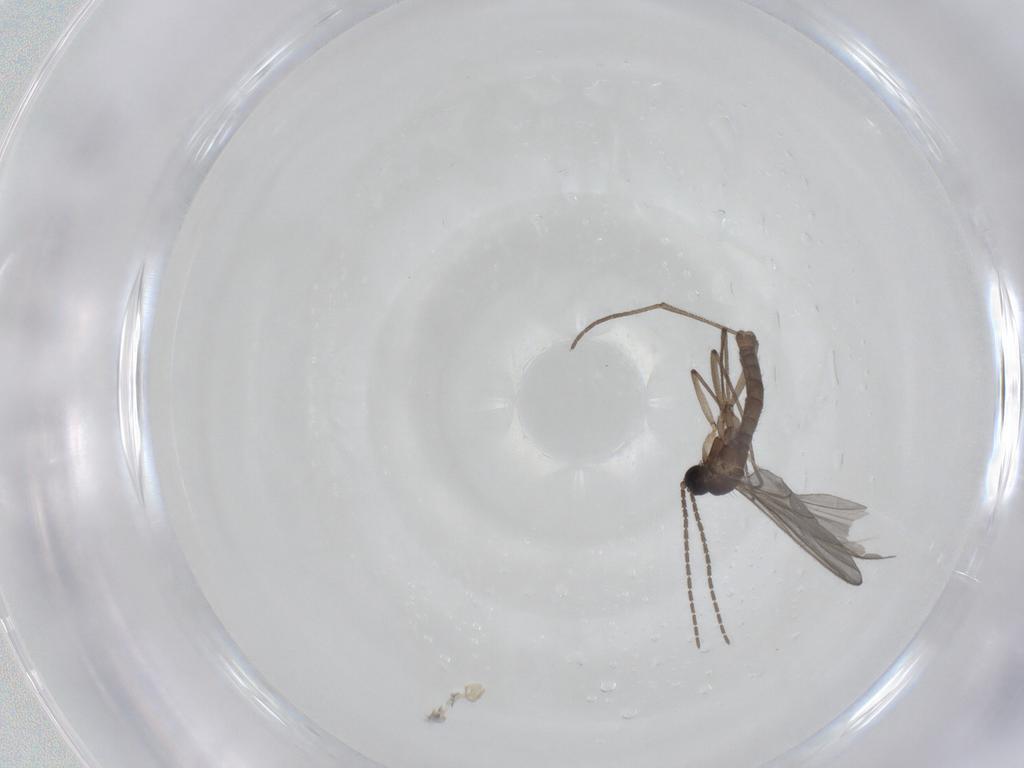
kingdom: Animalia
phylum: Arthropoda
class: Insecta
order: Diptera
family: Sciaridae
